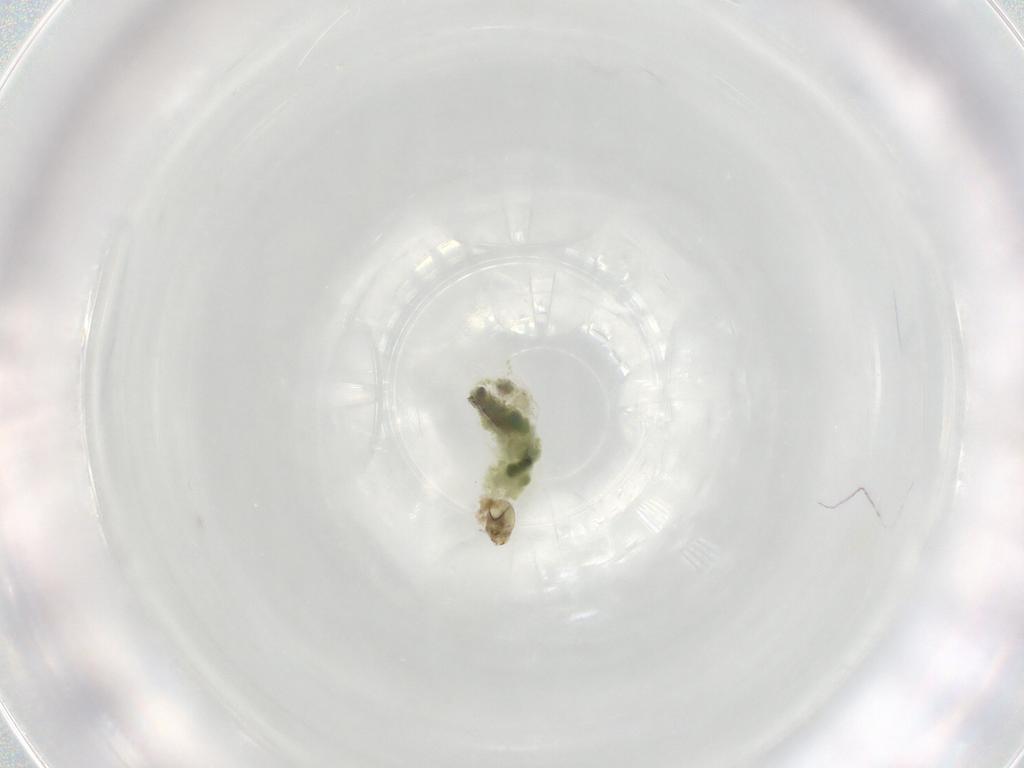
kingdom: Animalia
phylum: Arthropoda
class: Insecta
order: Diptera
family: Chironomidae
